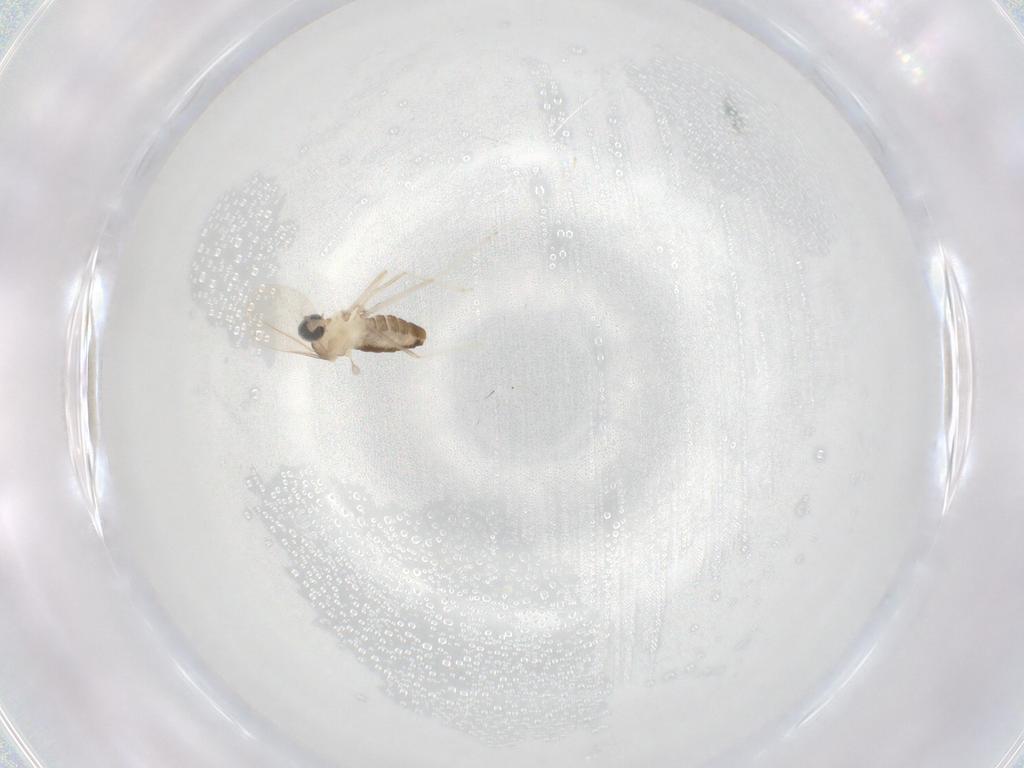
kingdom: Animalia
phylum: Arthropoda
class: Insecta
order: Diptera
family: Cecidomyiidae
